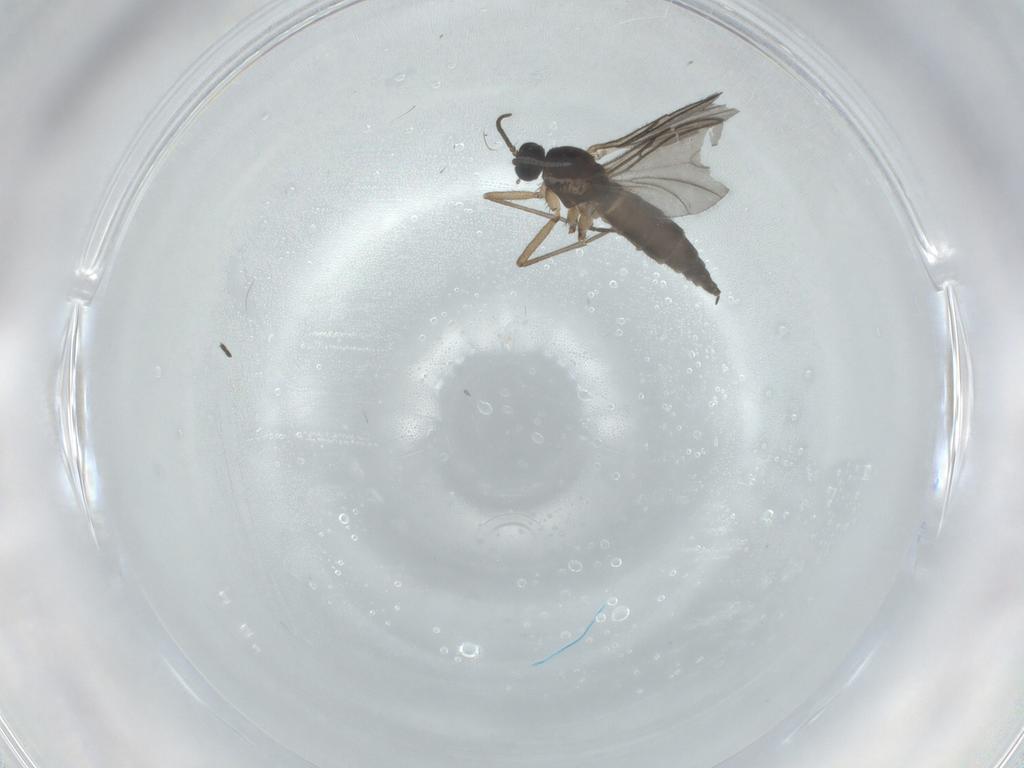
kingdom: Animalia
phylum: Arthropoda
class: Insecta
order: Diptera
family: Sciaridae
